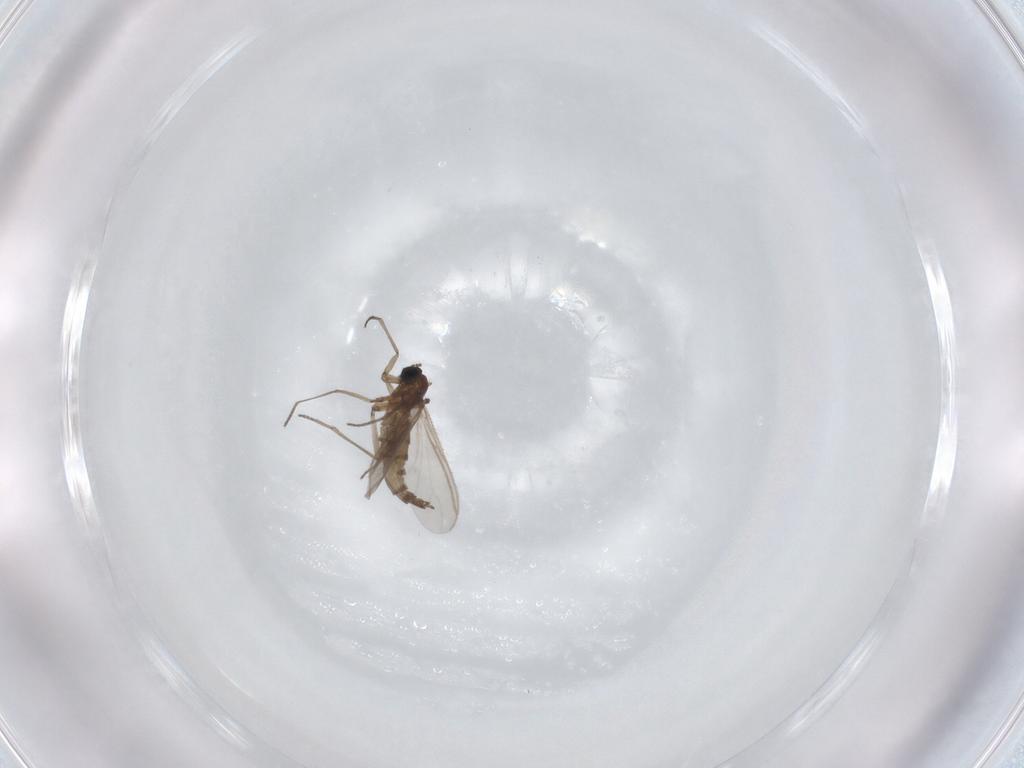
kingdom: Animalia
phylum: Arthropoda
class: Insecta
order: Diptera
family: Sciaridae
